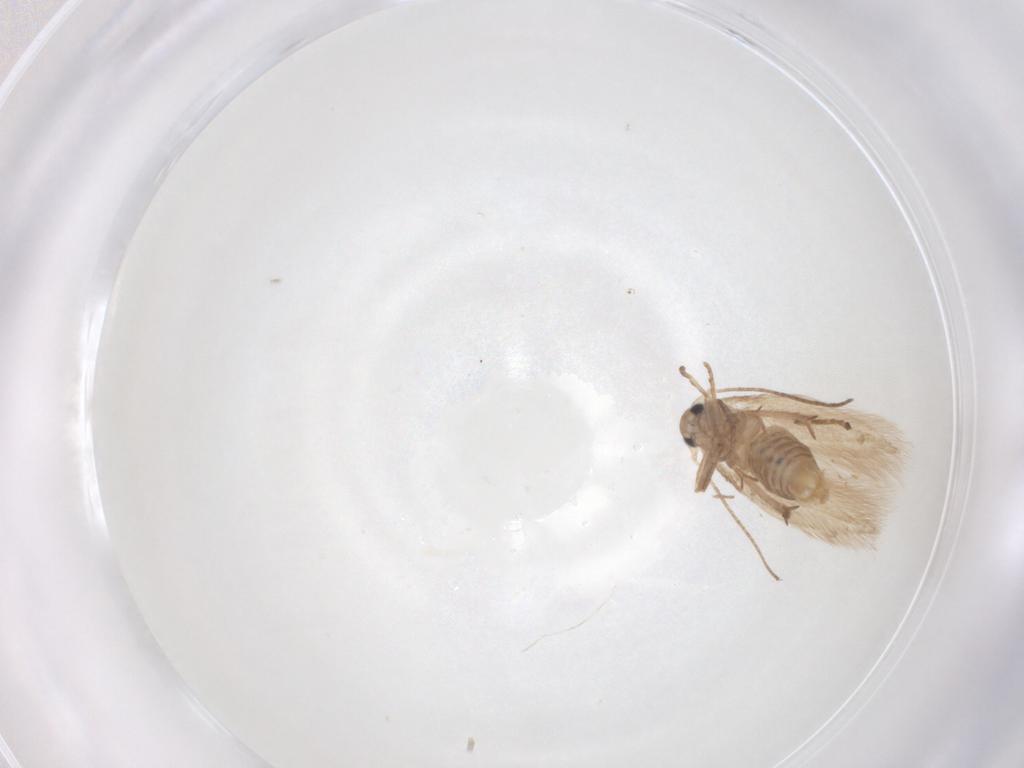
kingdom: Animalia
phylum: Arthropoda
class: Insecta
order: Lepidoptera
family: Bucculatricidae
